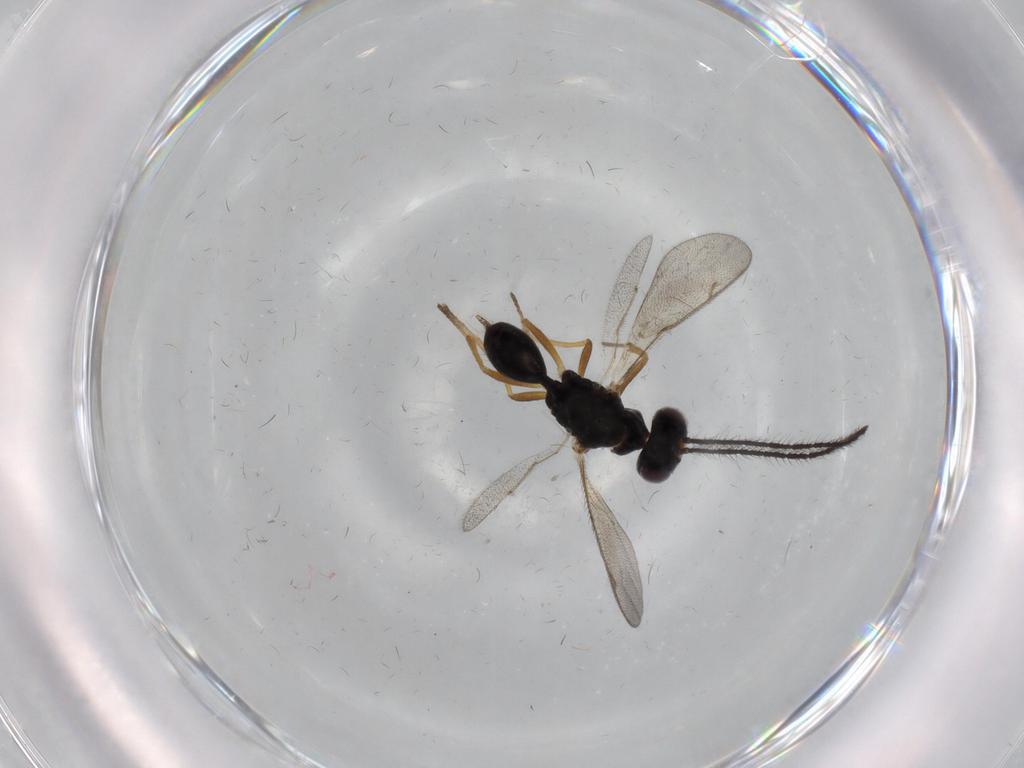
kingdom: Animalia
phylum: Arthropoda
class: Insecta
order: Hymenoptera
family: Diparidae
